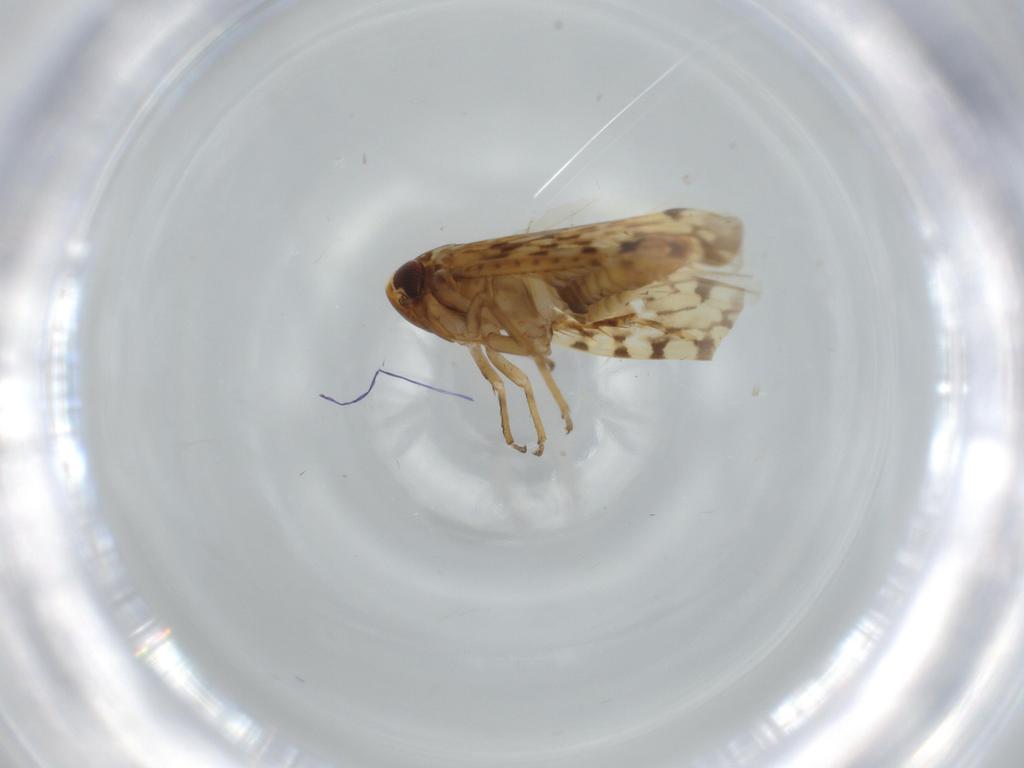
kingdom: Animalia
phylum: Arthropoda
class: Insecta
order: Hemiptera
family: Cicadellidae
